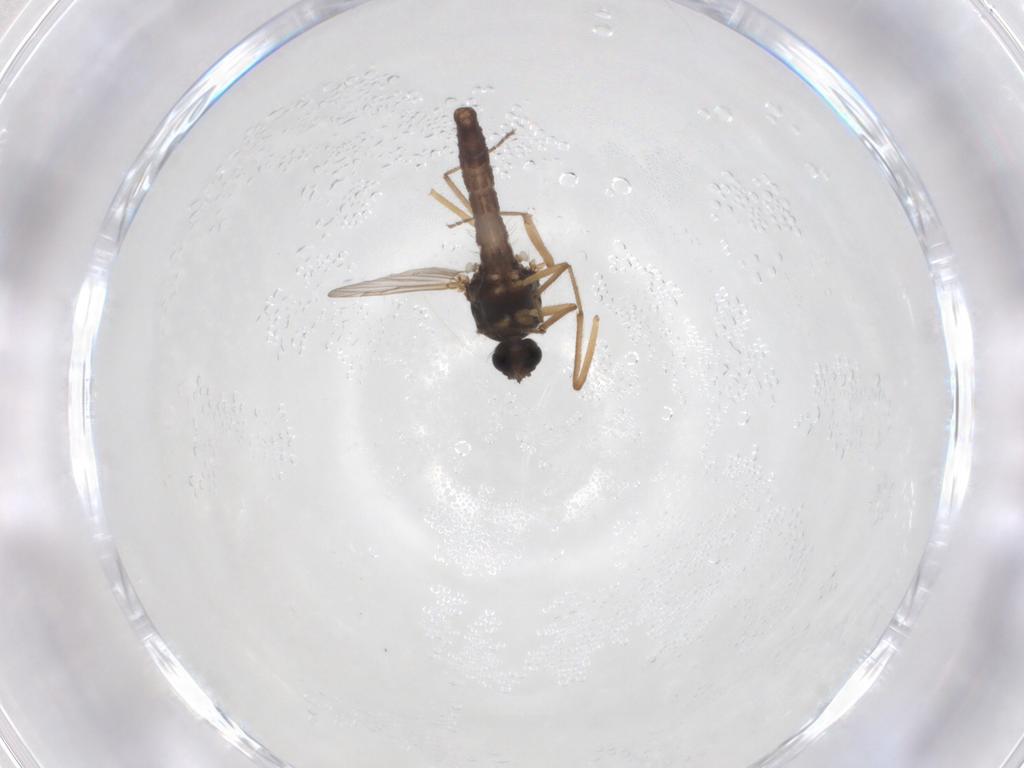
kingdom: Animalia
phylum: Arthropoda
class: Insecta
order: Diptera
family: Ceratopogonidae
